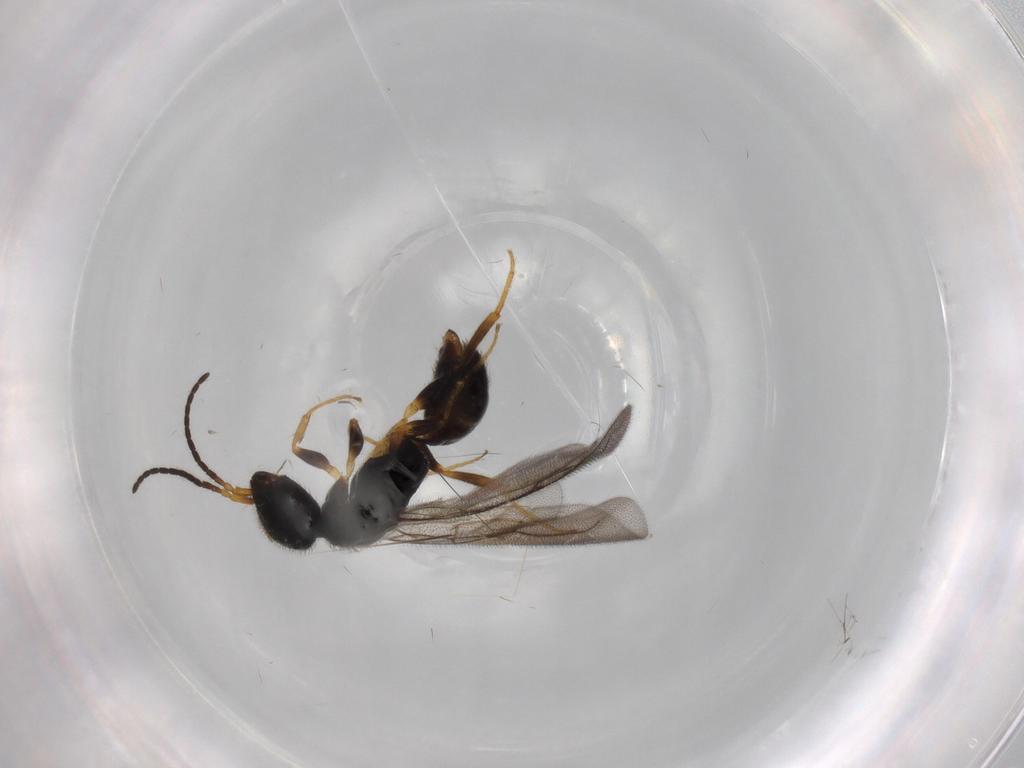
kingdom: Animalia
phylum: Arthropoda
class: Insecta
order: Hymenoptera
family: Bethylidae
